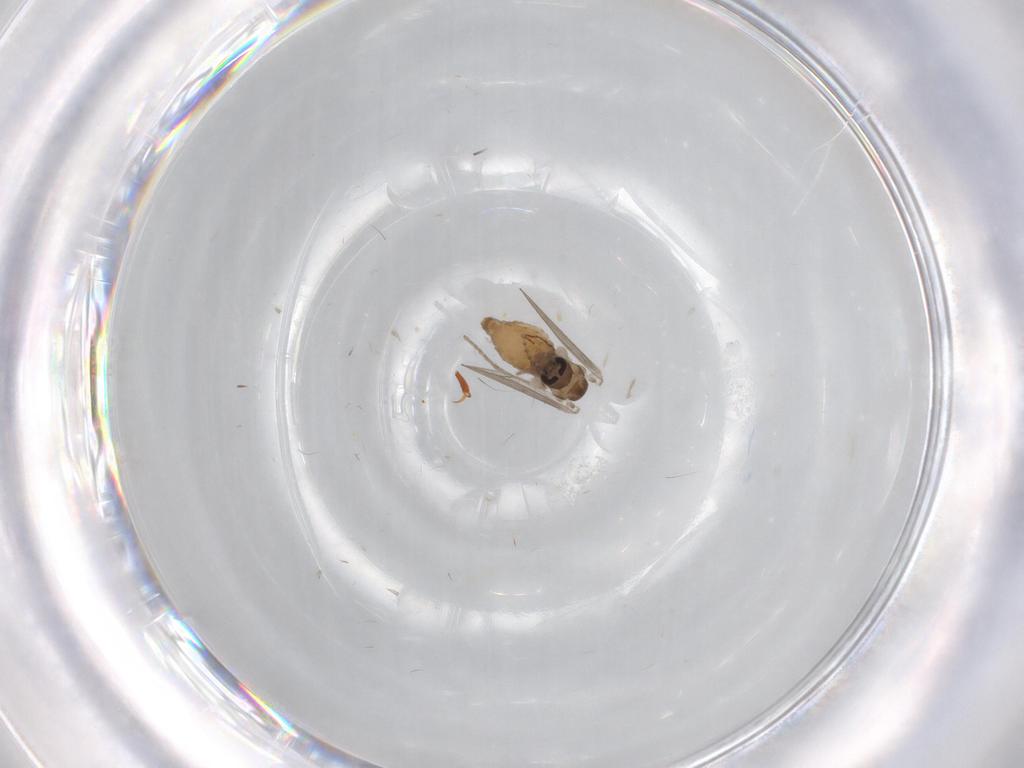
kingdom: Animalia
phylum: Arthropoda
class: Insecta
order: Diptera
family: Psychodidae
